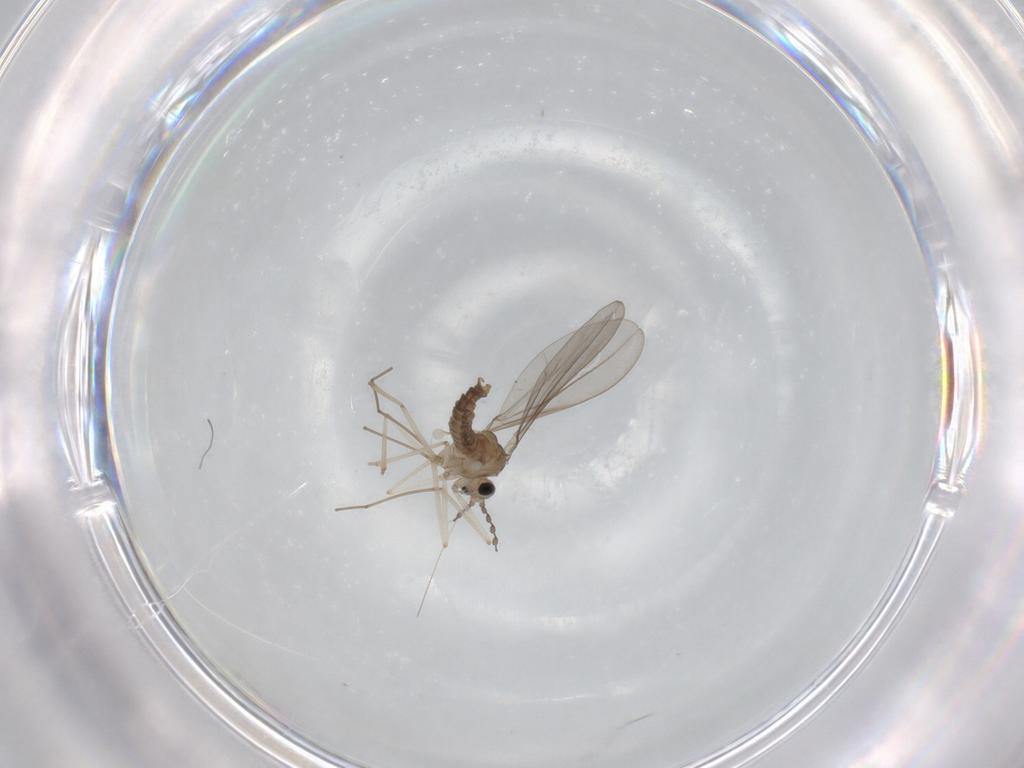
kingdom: Animalia
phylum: Arthropoda
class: Insecta
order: Diptera
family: Cecidomyiidae
